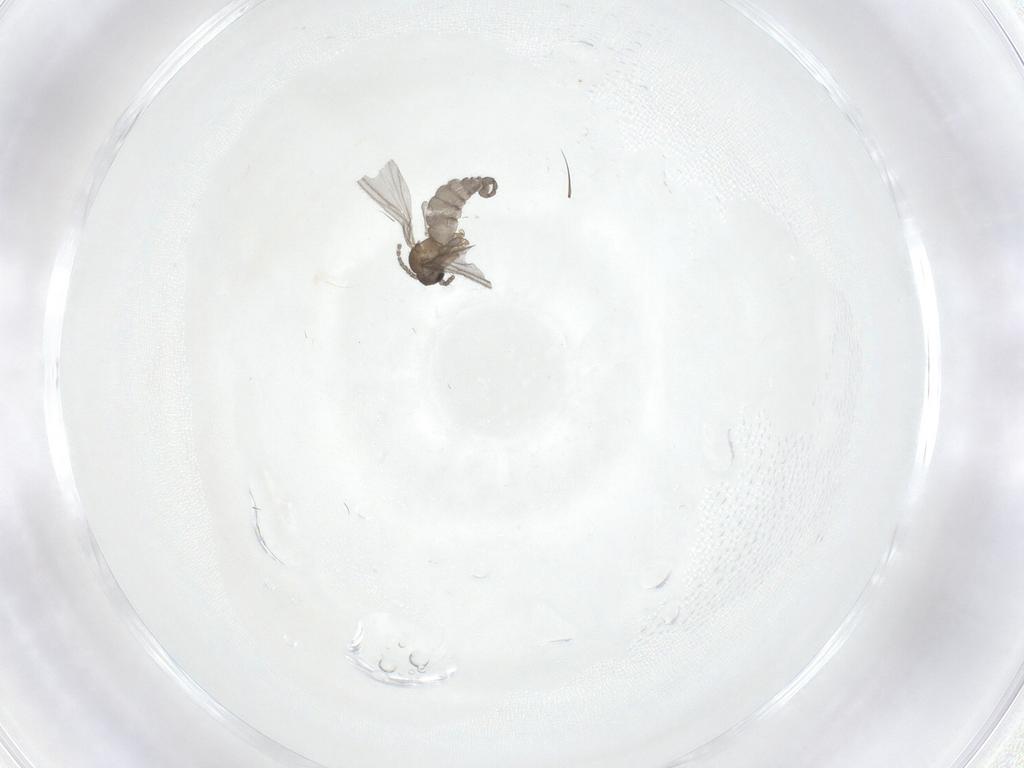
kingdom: Animalia
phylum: Arthropoda
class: Insecta
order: Diptera
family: Sciaridae
